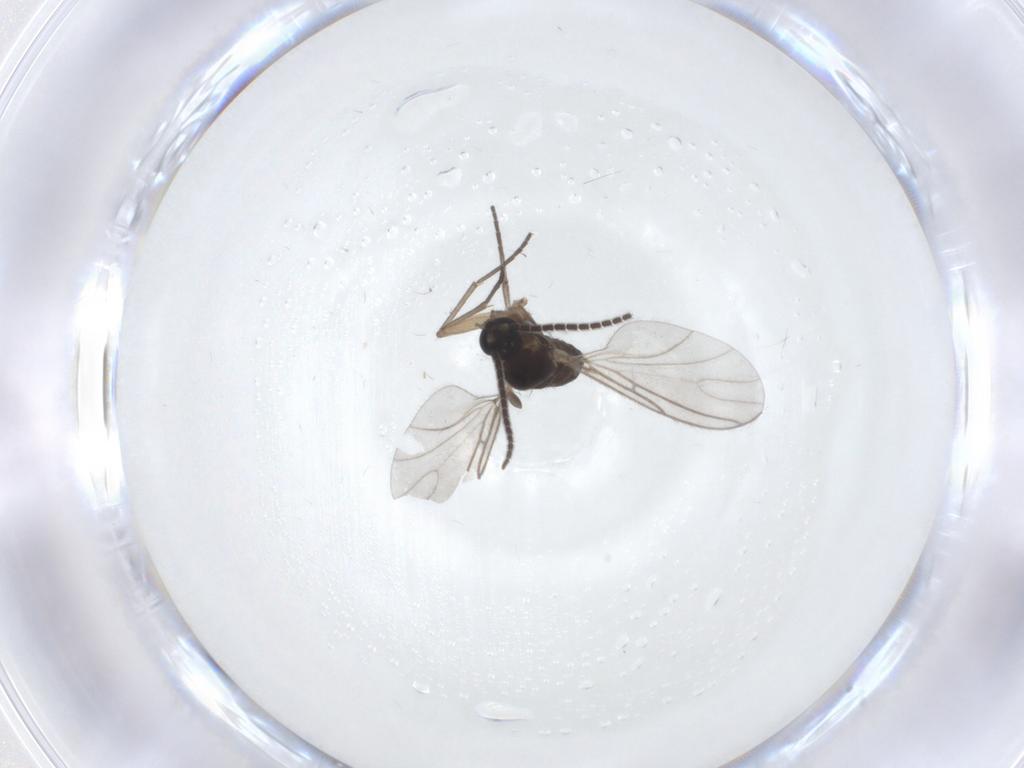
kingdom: Animalia
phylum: Arthropoda
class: Insecta
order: Diptera
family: Sciaridae
